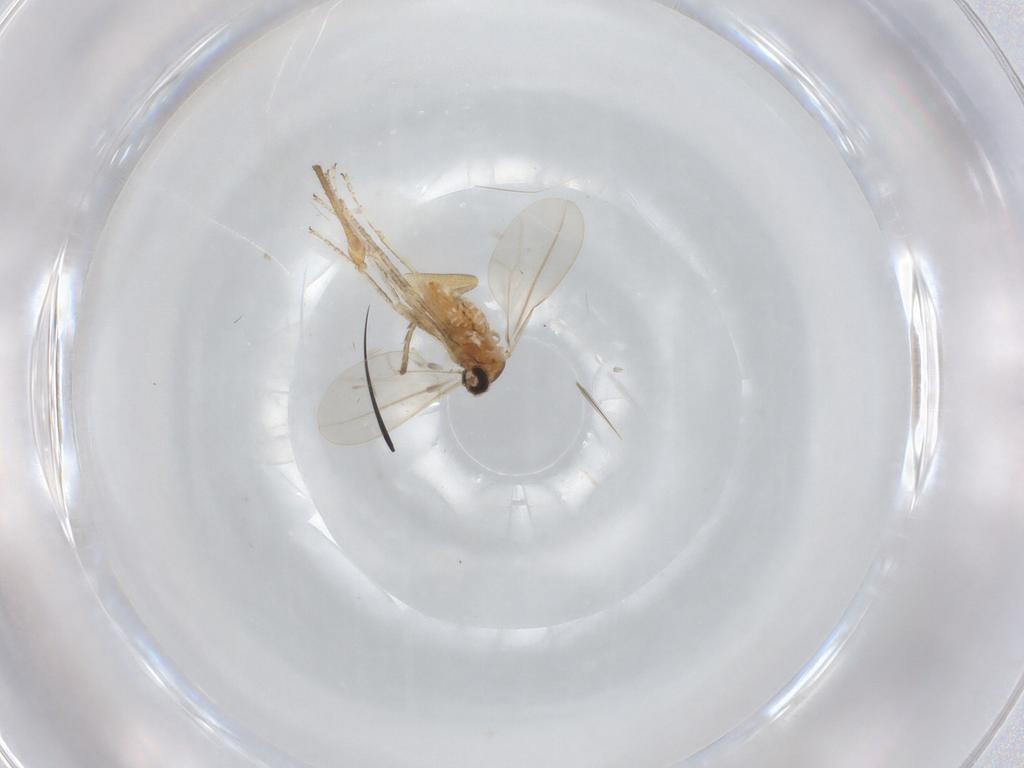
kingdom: Animalia
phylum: Arthropoda
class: Insecta
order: Diptera
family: Cecidomyiidae
